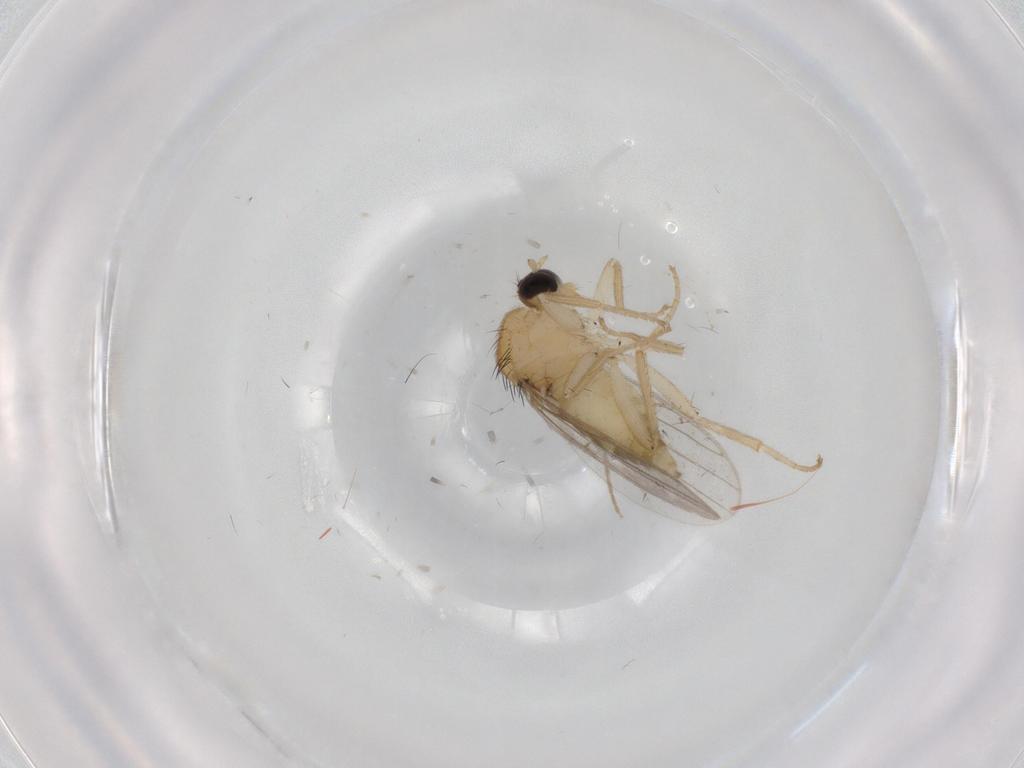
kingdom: Animalia
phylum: Arthropoda
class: Insecta
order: Diptera
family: Hybotidae
